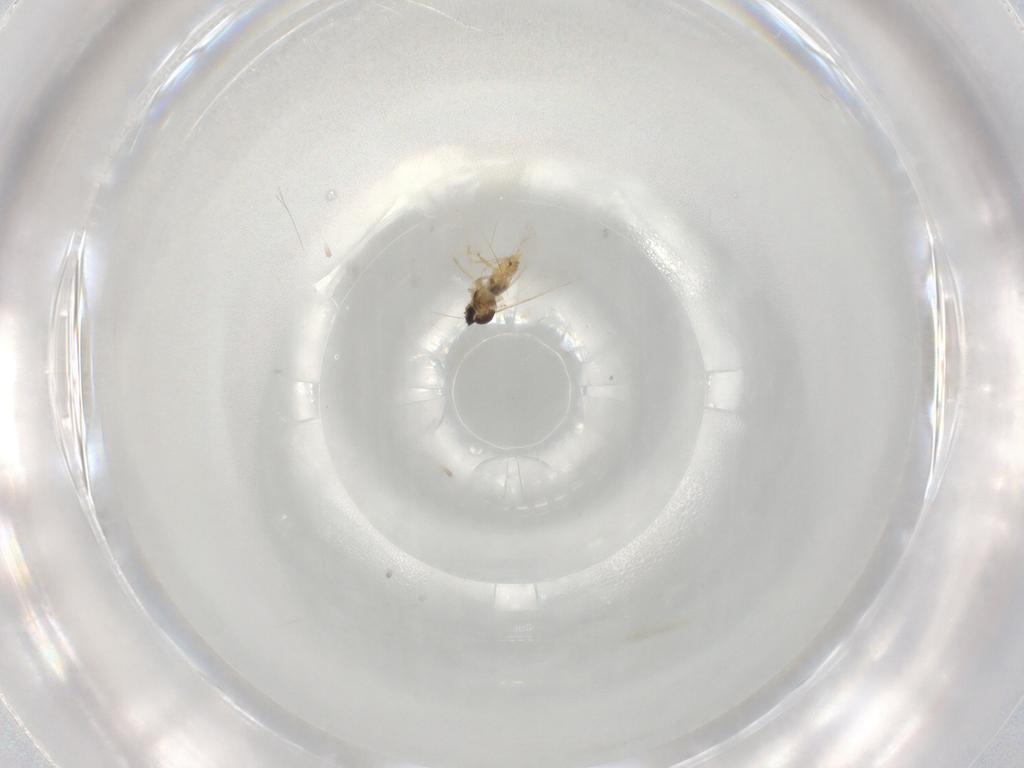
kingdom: Animalia
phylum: Arthropoda
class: Insecta
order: Diptera
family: Cecidomyiidae
